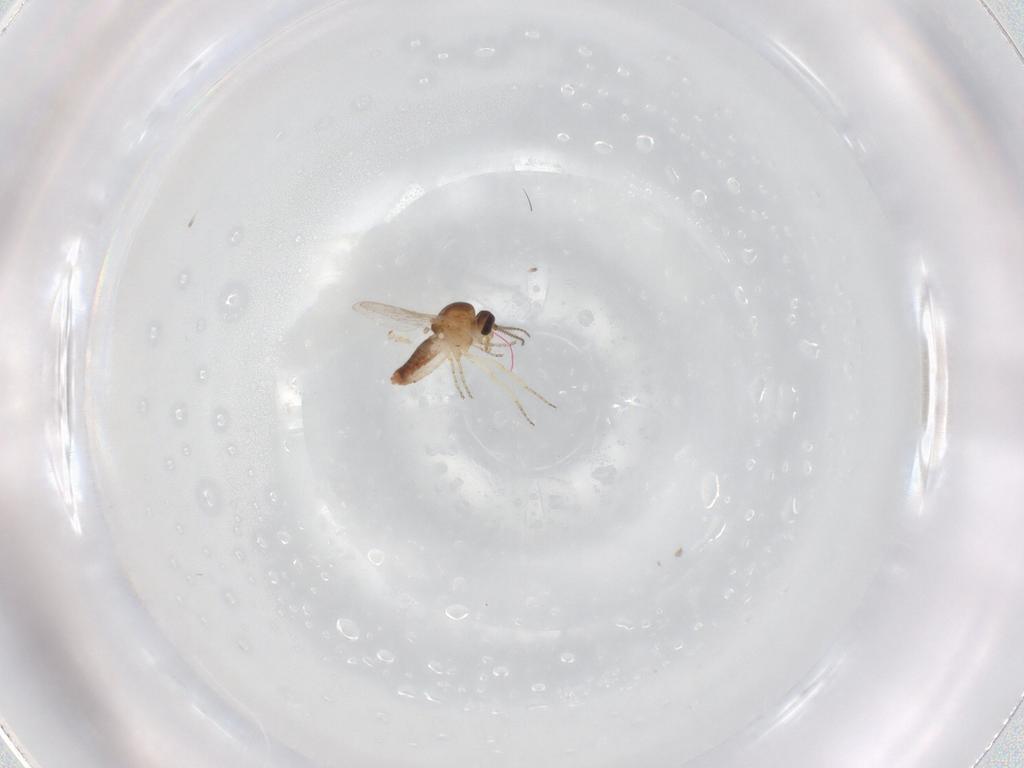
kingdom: Animalia
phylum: Arthropoda
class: Insecta
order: Diptera
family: Ceratopogonidae
